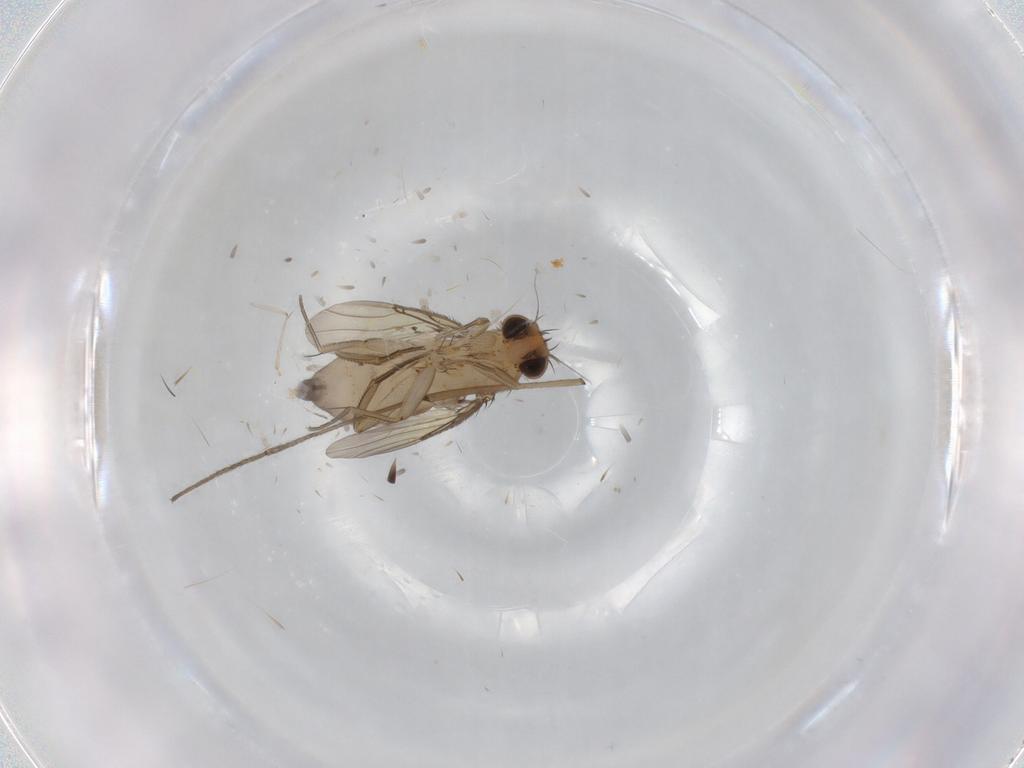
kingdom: Animalia
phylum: Arthropoda
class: Insecta
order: Diptera
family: Phoridae
